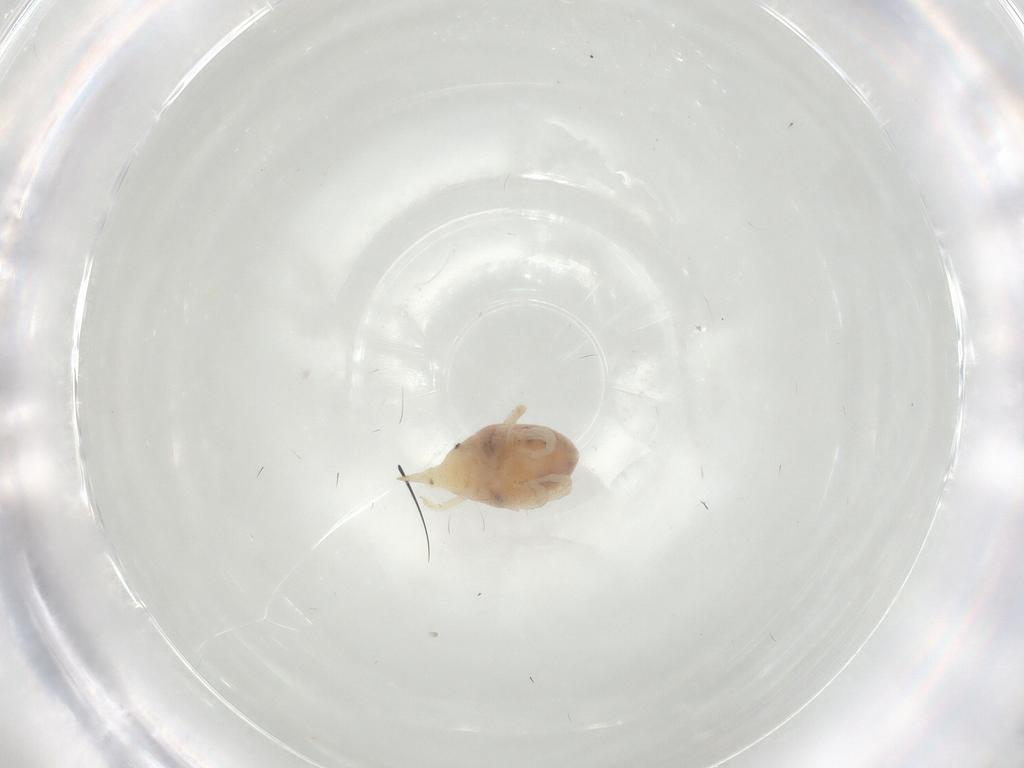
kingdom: Animalia
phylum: Arthropoda
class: Arachnida
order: Trombidiformes
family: Bdellidae
